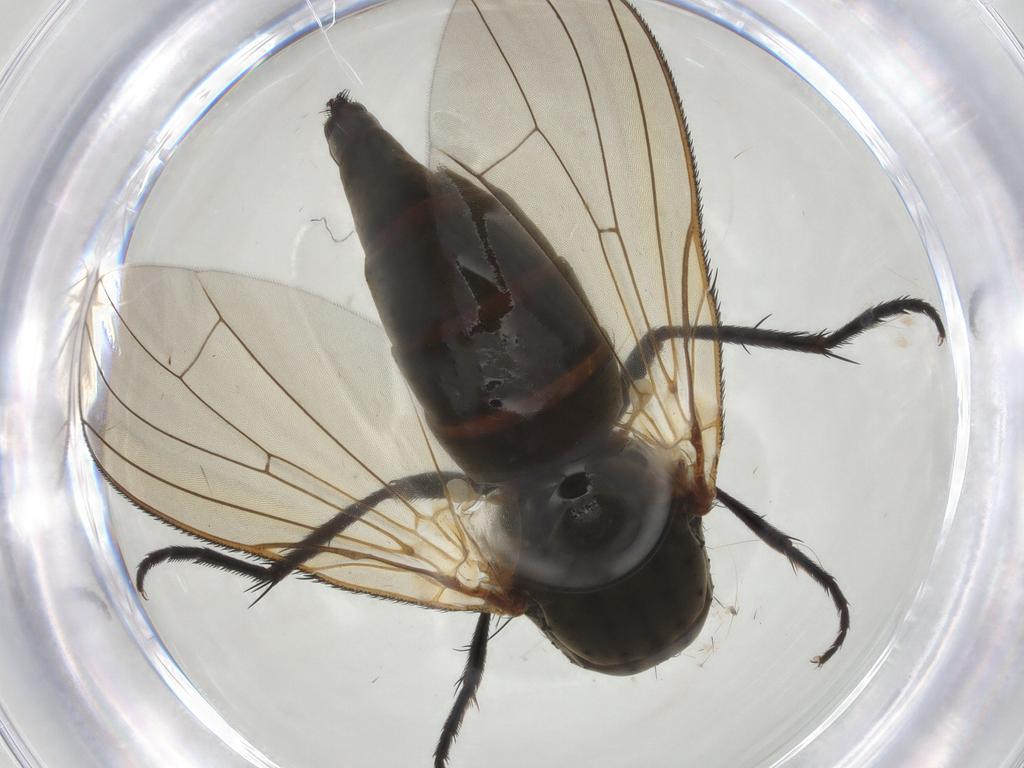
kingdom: Animalia
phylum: Arthropoda
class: Insecta
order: Diptera
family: Anthomyiidae
